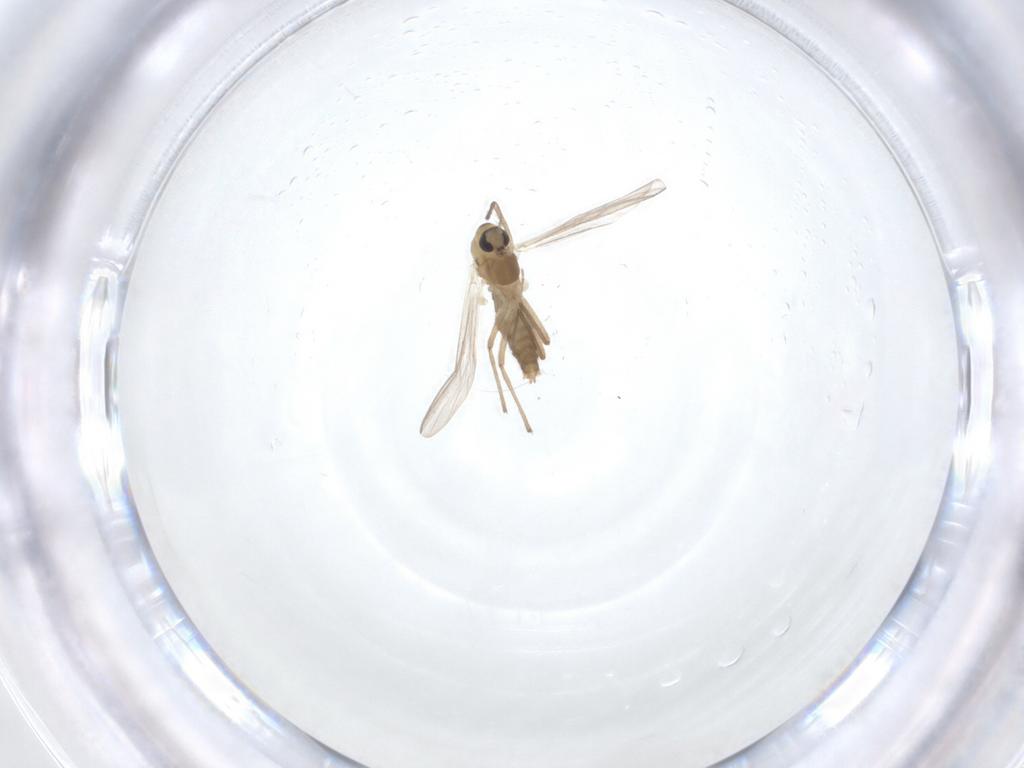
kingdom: Animalia
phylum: Arthropoda
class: Insecta
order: Diptera
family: Chironomidae
